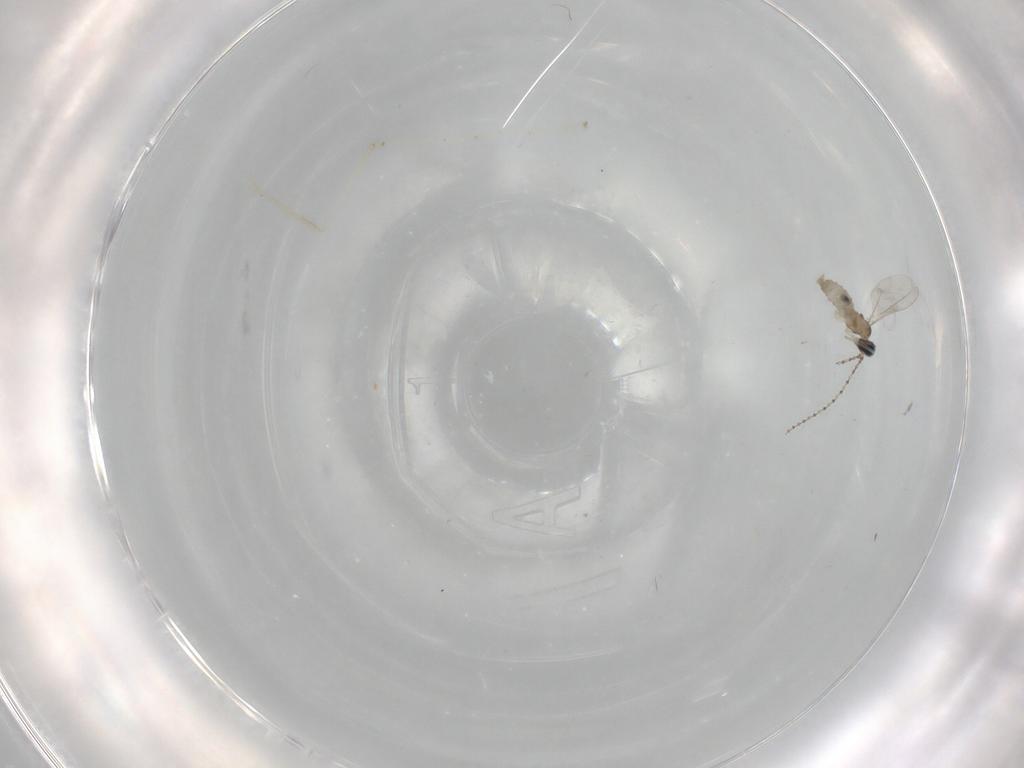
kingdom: Animalia
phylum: Arthropoda
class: Insecta
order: Diptera
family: Cecidomyiidae
